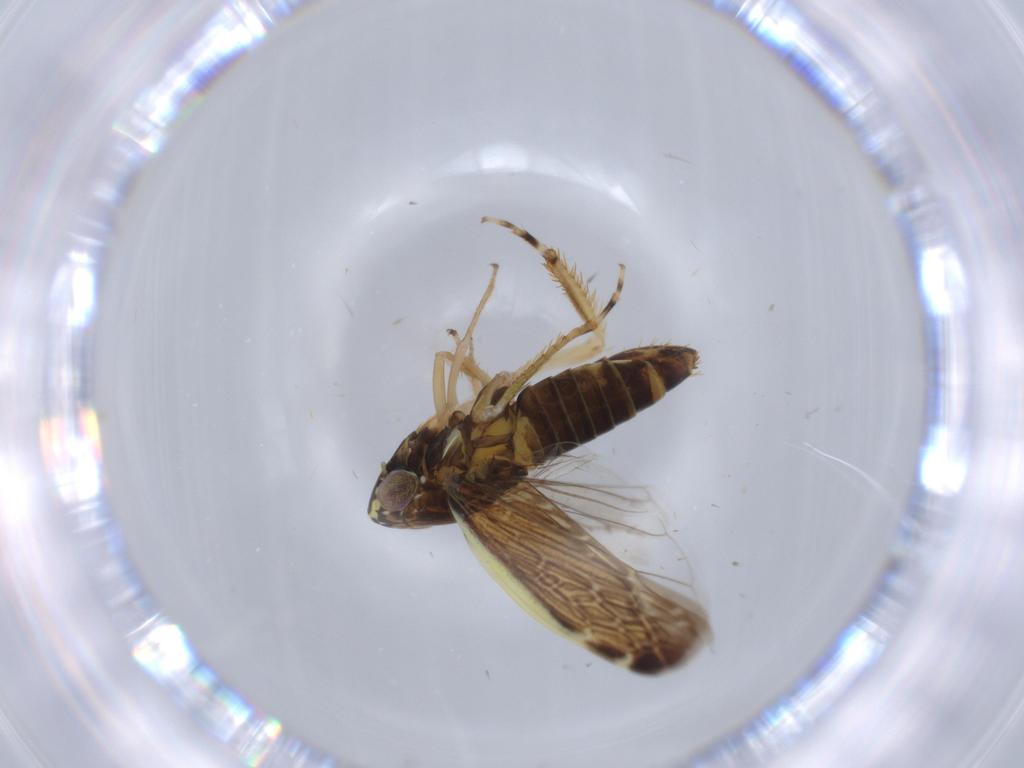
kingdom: Animalia
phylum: Arthropoda
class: Insecta
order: Hemiptera
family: Cicadellidae
